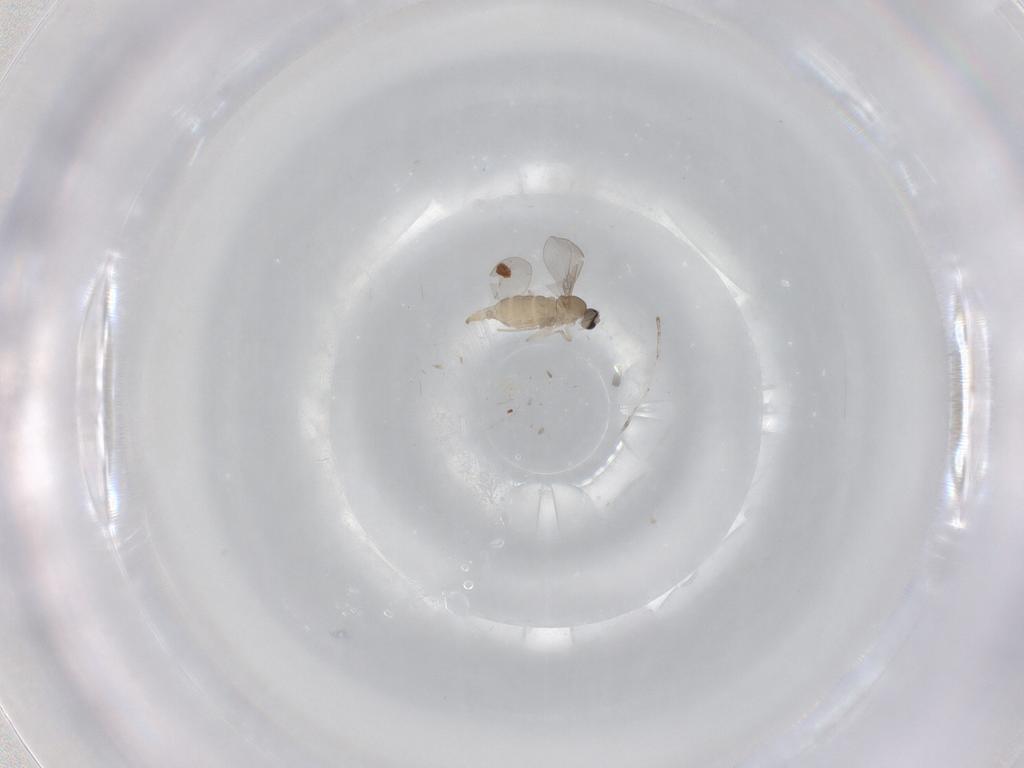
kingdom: Animalia
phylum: Arthropoda
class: Insecta
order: Diptera
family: Cecidomyiidae
